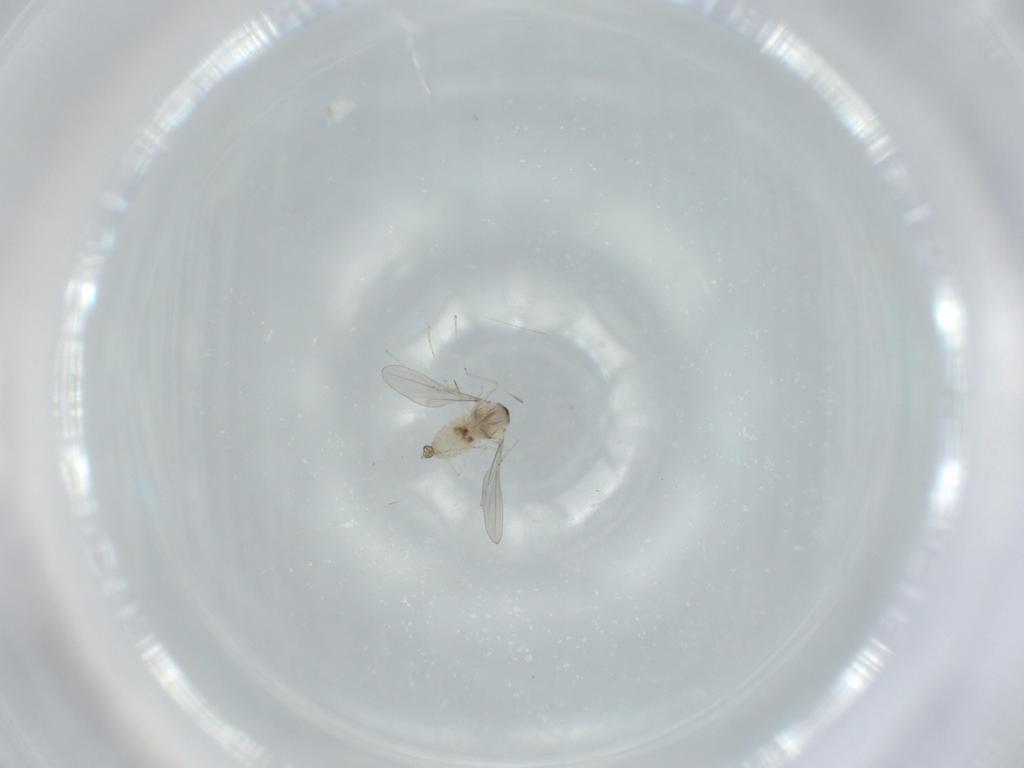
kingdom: Animalia
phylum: Arthropoda
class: Insecta
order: Diptera
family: Cecidomyiidae
